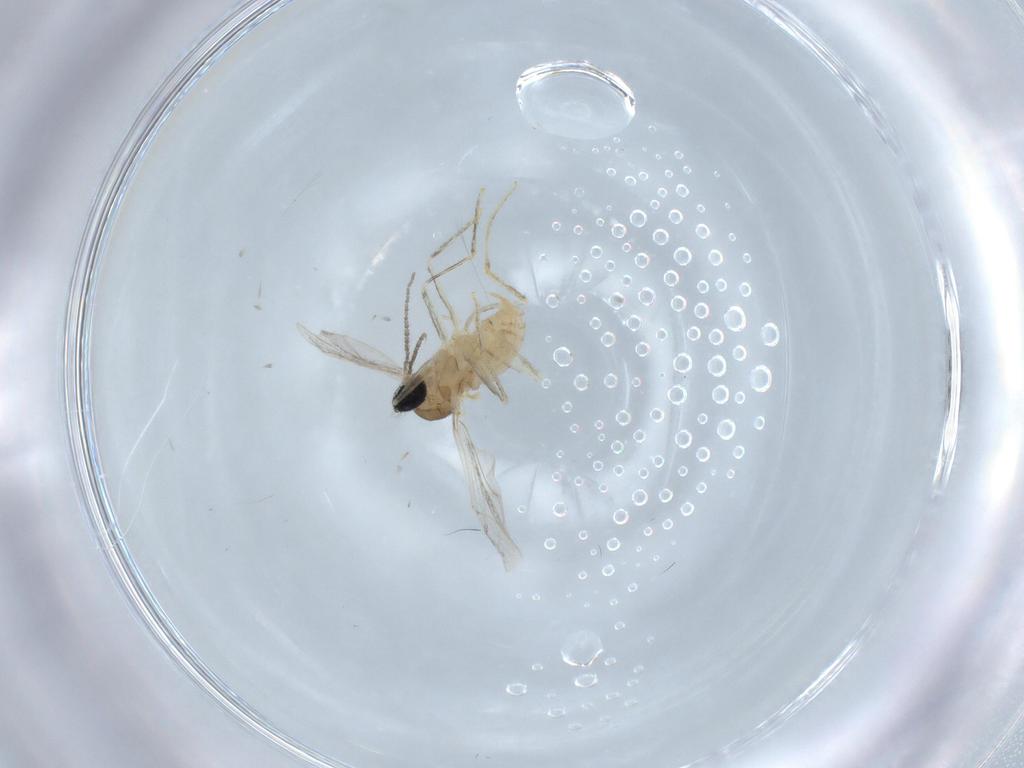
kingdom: Animalia
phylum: Arthropoda
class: Insecta
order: Diptera
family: Cecidomyiidae
